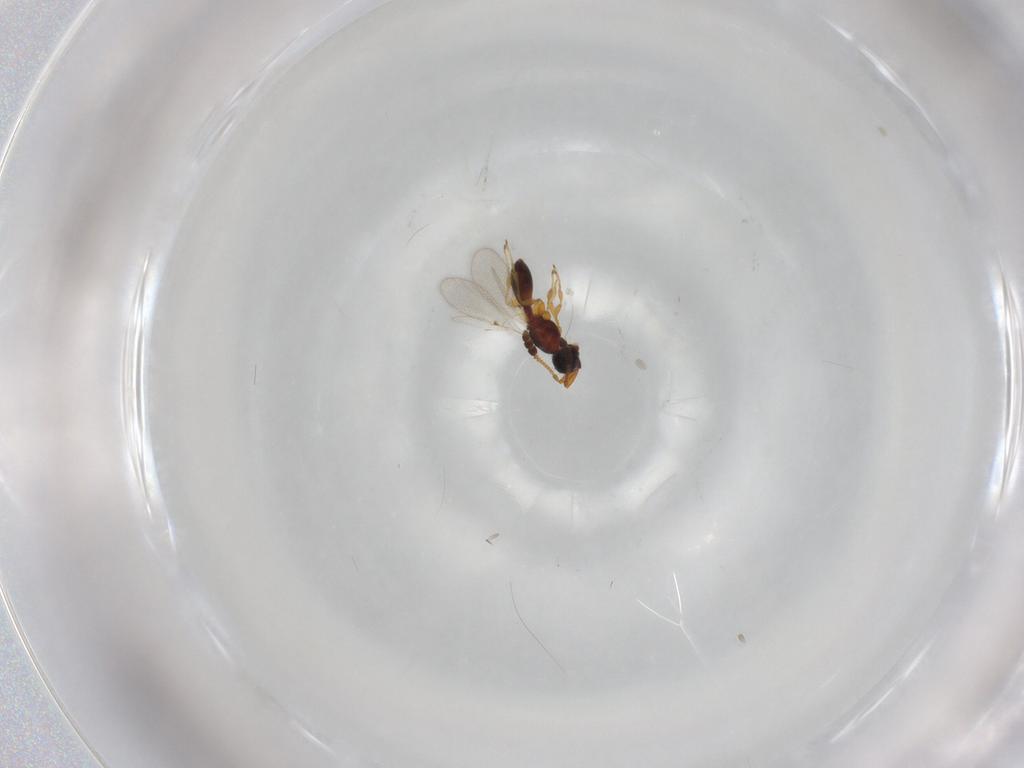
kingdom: Animalia
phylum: Arthropoda
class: Insecta
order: Hymenoptera
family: Diapriidae
